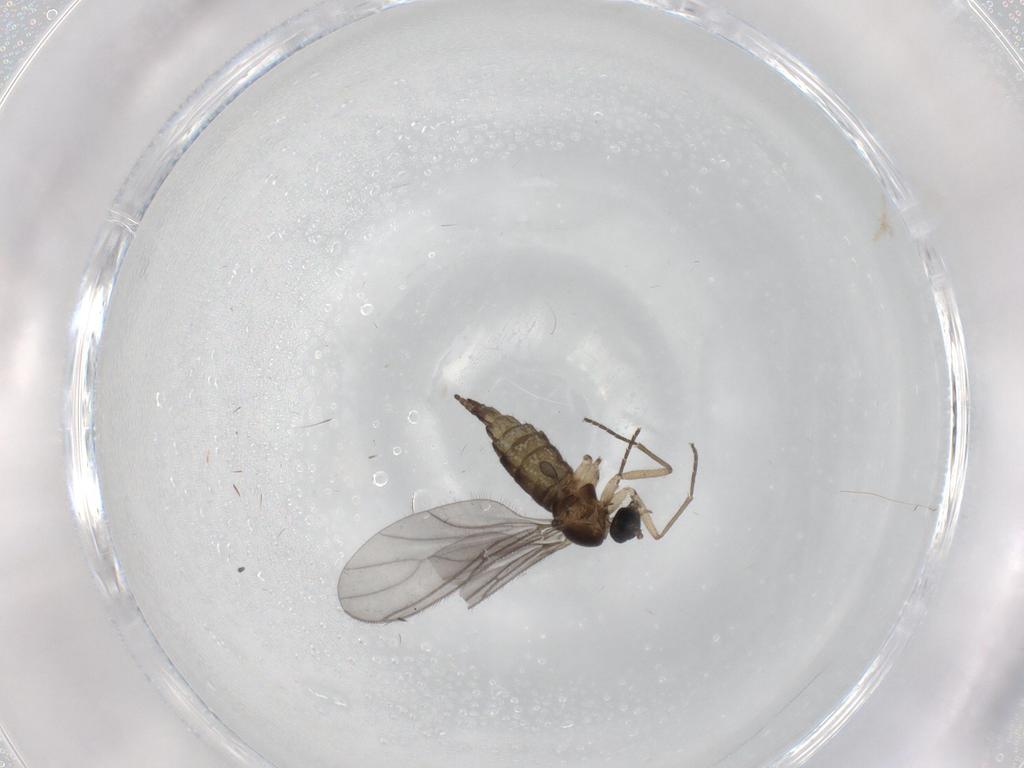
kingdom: Animalia
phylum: Arthropoda
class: Insecta
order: Diptera
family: Sciaridae
